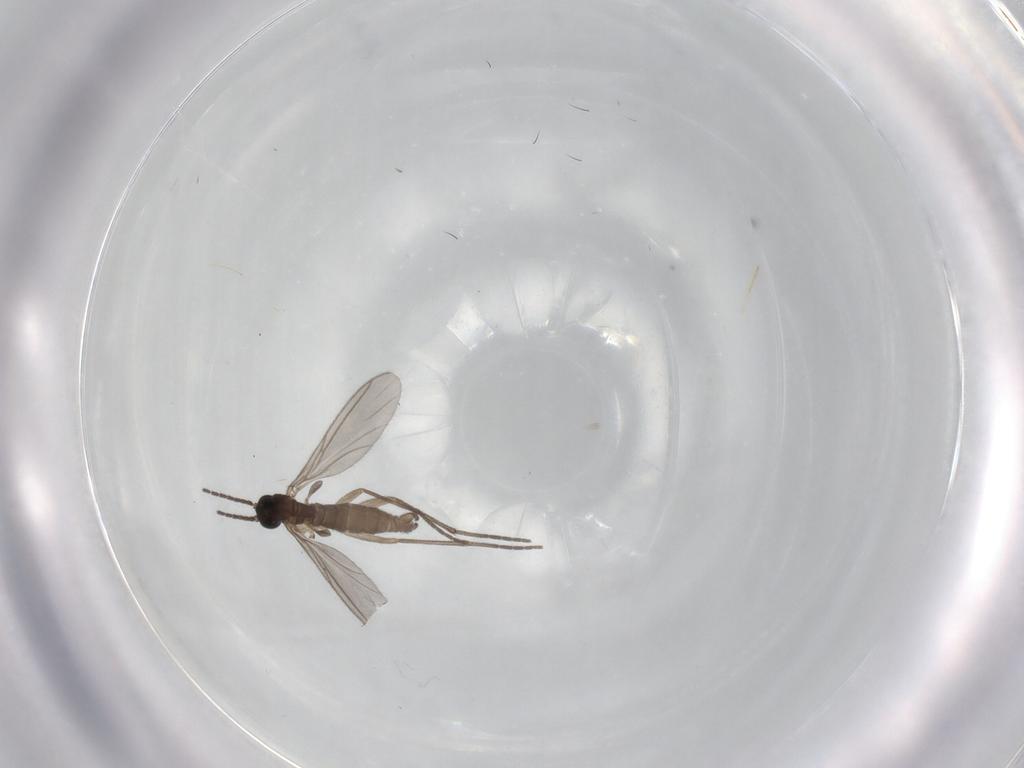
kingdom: Animalia
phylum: Arthropoda
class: Insecta
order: Diptera
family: Sciaridae
